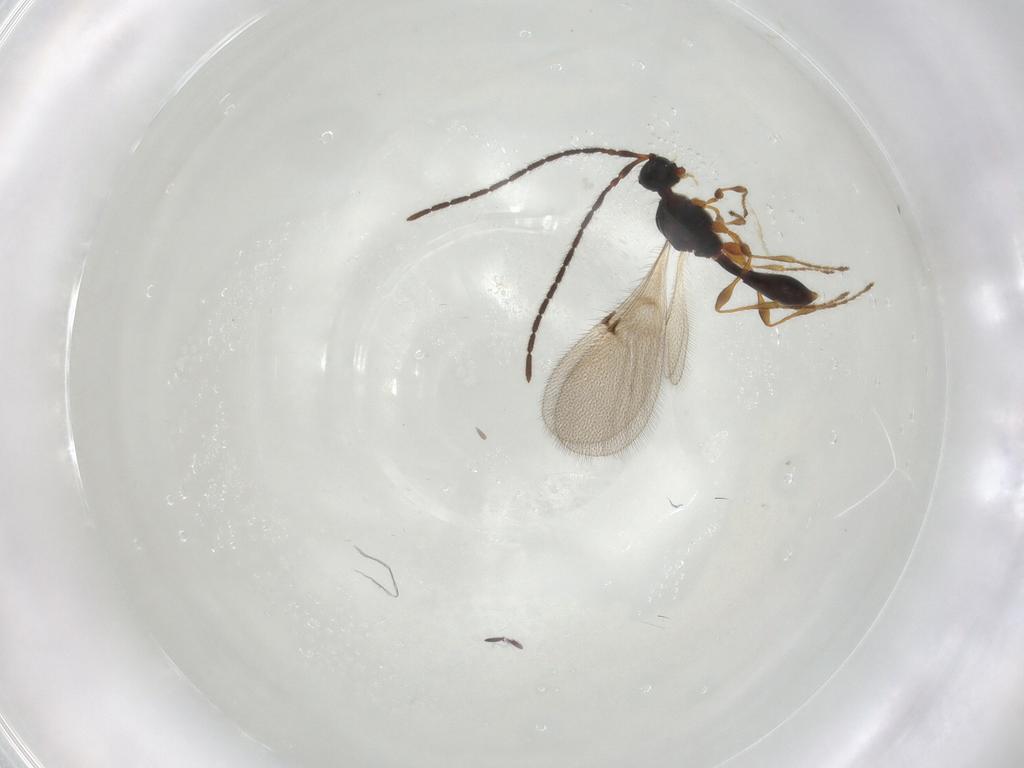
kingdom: Animalia
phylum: Arthropoda
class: Insecta
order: Hymenoptera
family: Diapriidae
